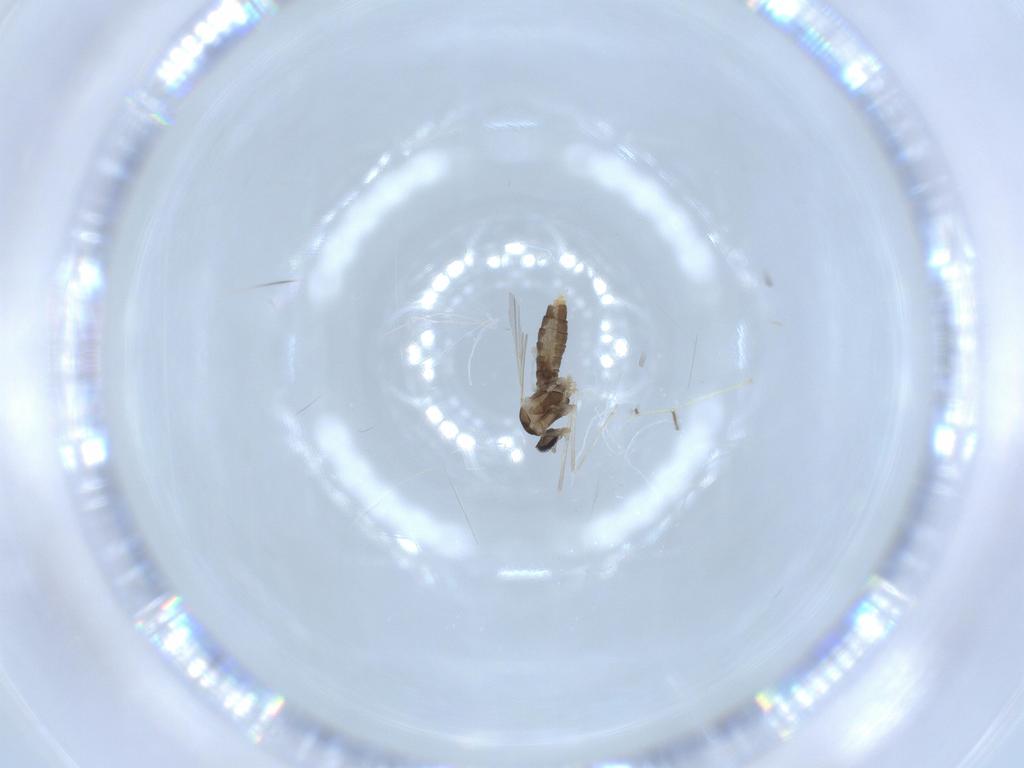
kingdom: Animalia
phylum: Arthropoda
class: Insecta
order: Diptera
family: Cecidomyiidae
